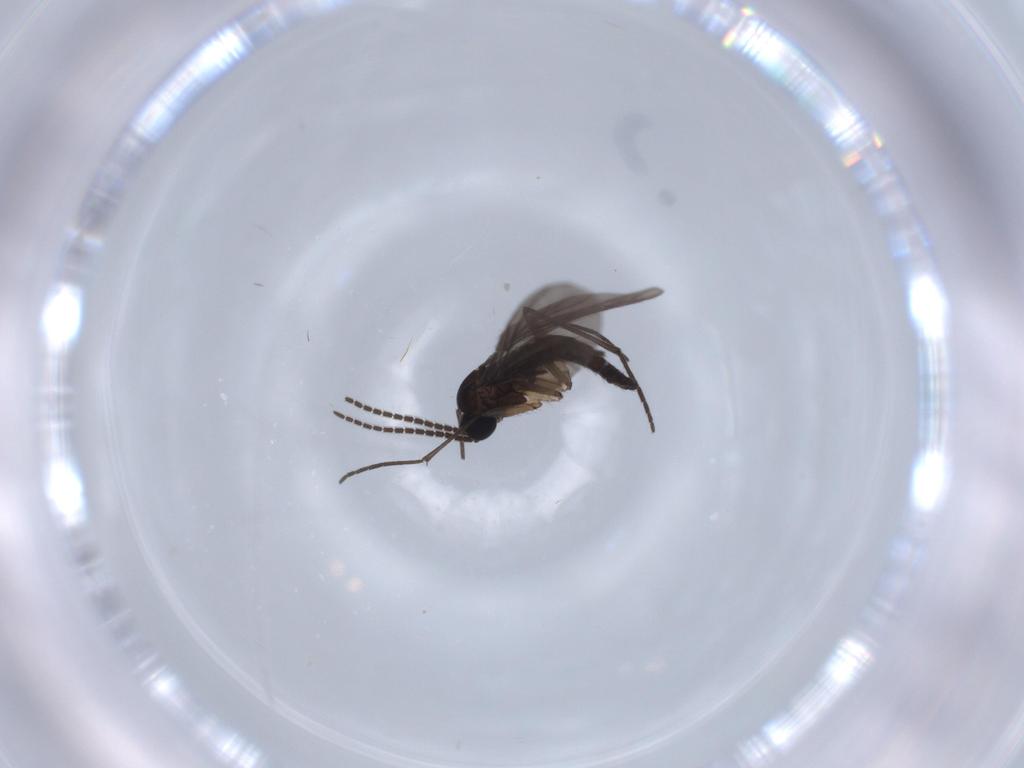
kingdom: Animalia
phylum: Arthropoda
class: Insecta
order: Diptera
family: Sciaridae
